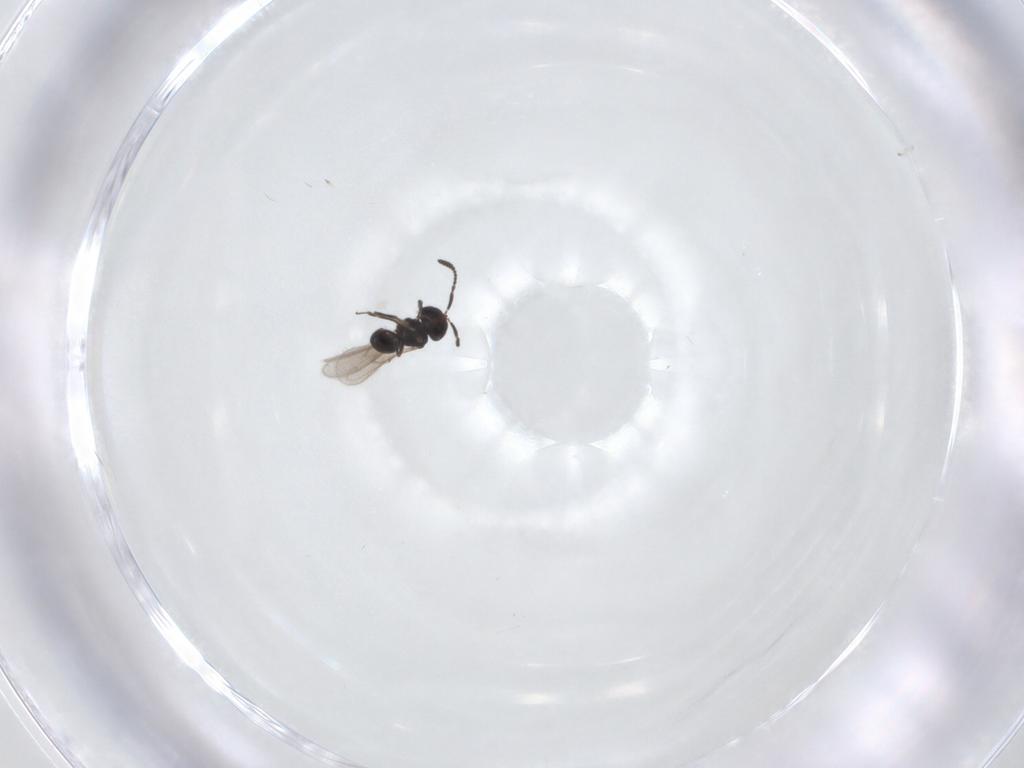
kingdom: Animalia
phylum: Arthropoda
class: Insecta
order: Hymenoptera
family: Scelionidae
